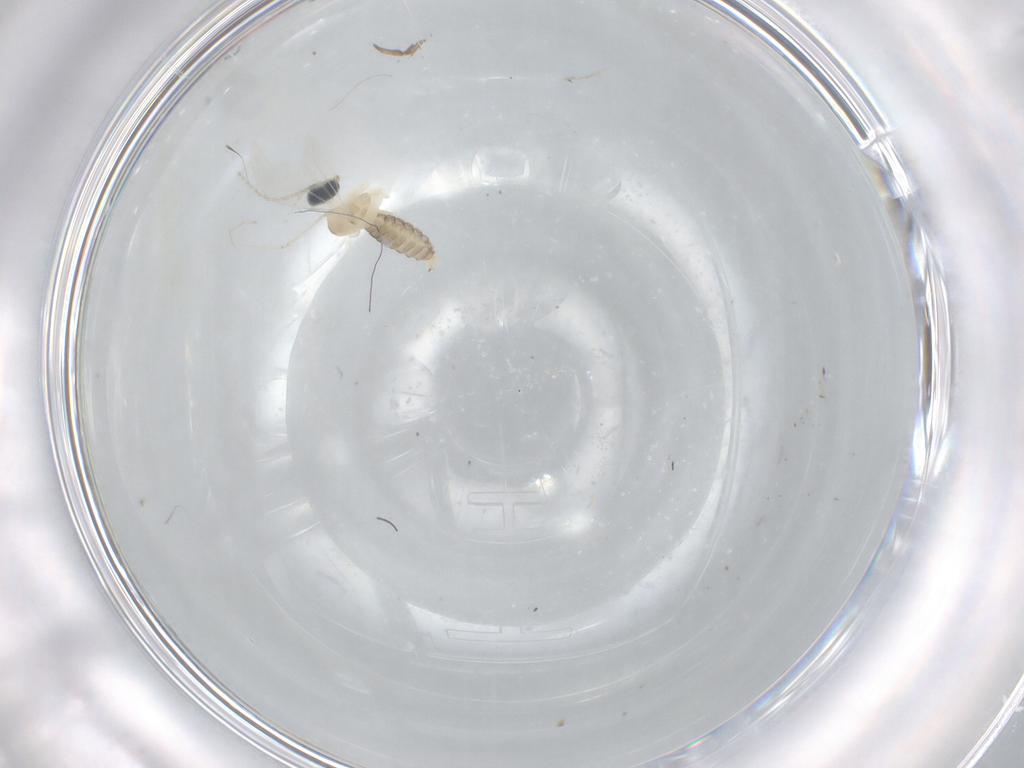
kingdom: Animalia
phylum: Arthropoda
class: Insecta
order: Diptera
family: Cecidomyiidae
